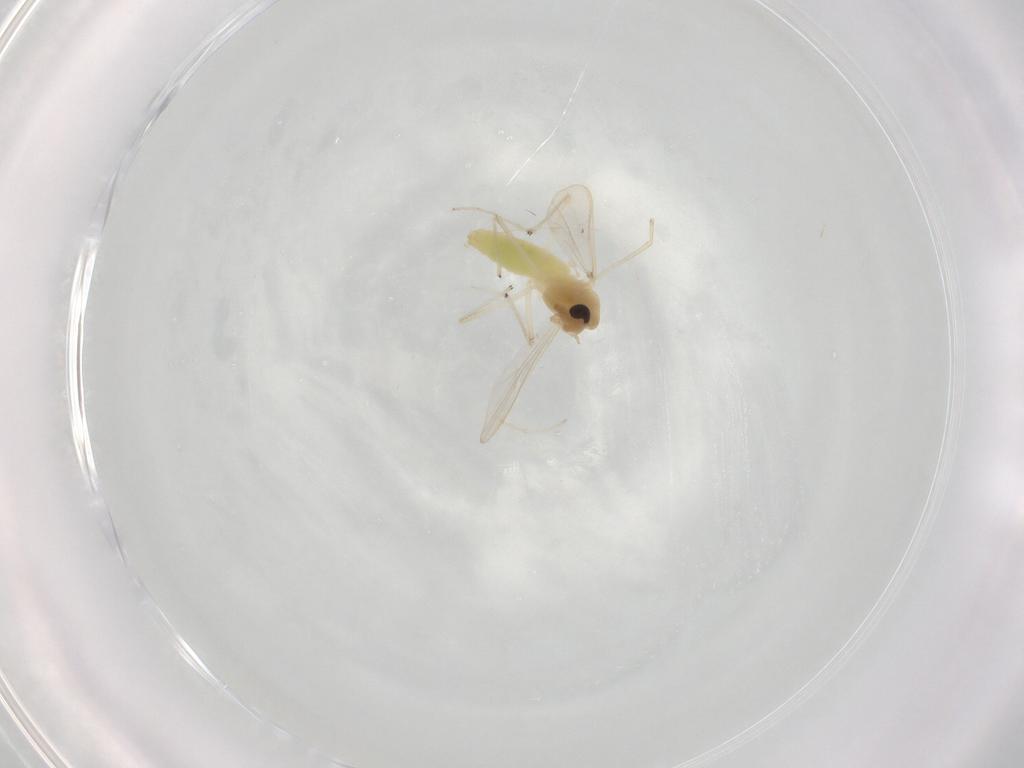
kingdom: Animalia
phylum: Arthropoda
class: Insecta
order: Diptera
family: Chironomidae
